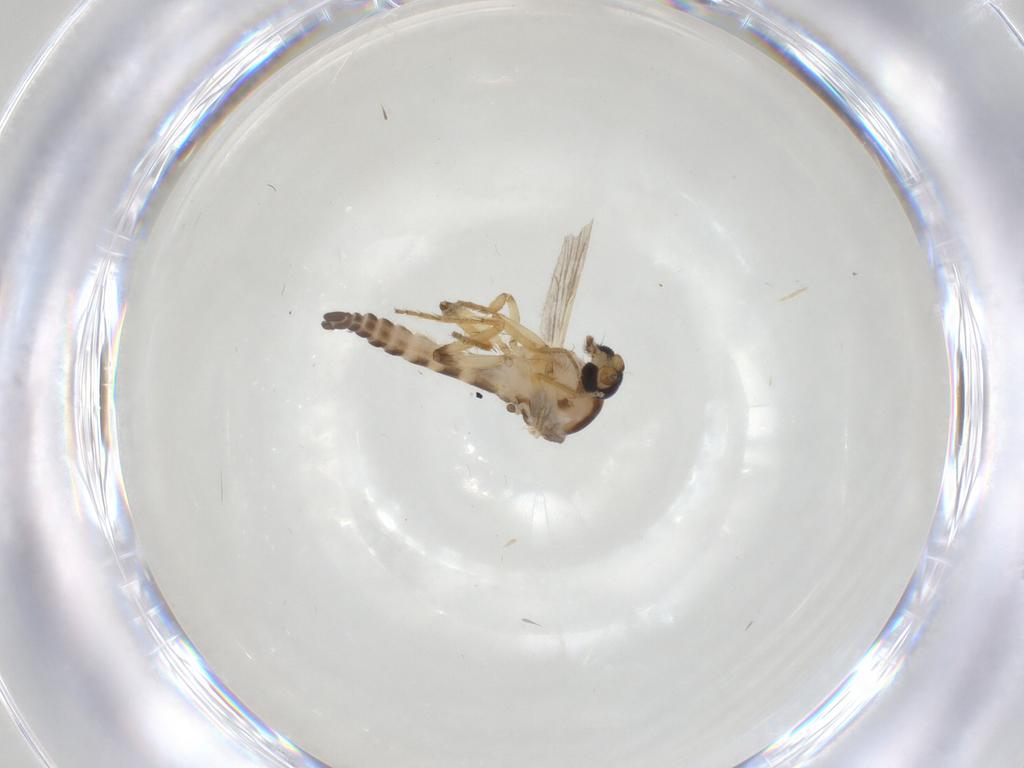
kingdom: Animalia
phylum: Arthropoda
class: Insecta
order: Diptera
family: Ceratopogonidae
